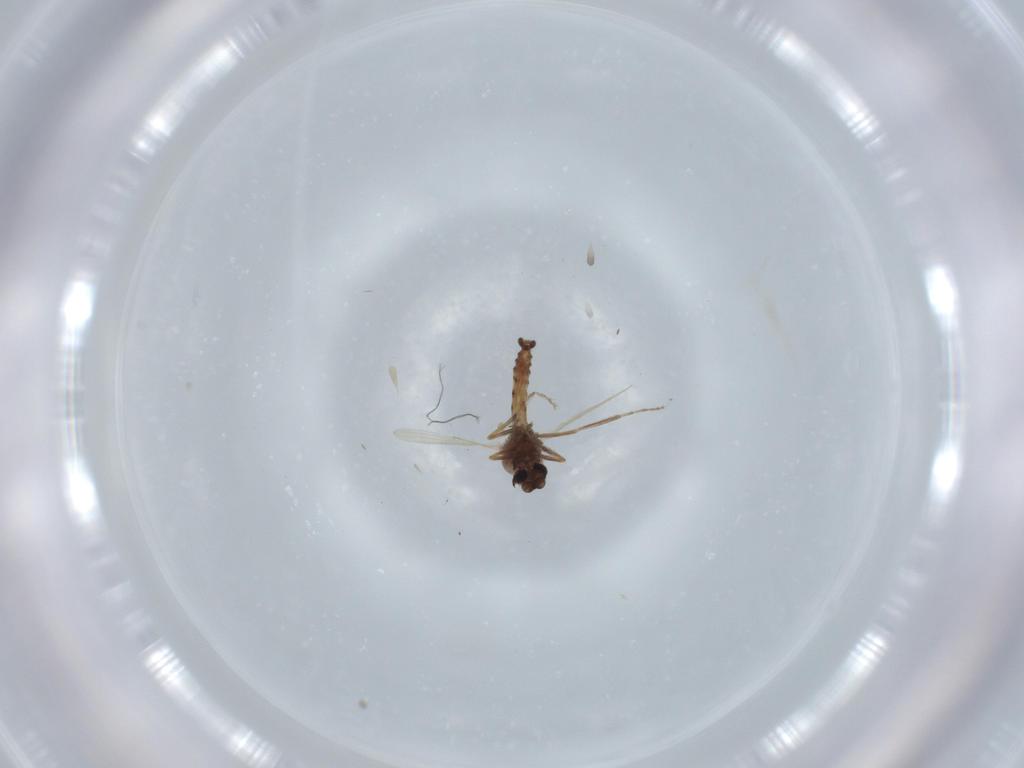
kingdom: Animalia
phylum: Arthropoda
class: Insecta
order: Diptera
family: Ceratopogonidae
